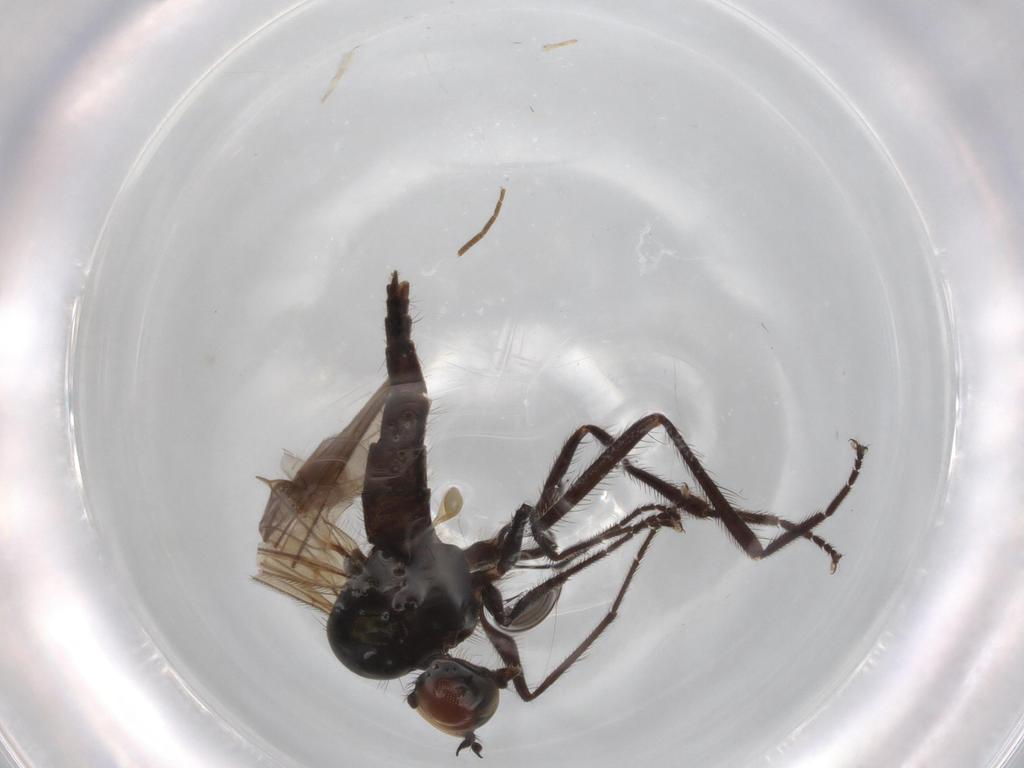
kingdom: Animalia
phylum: Arthropoda
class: Insecta
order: Diptera
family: Hybotidae
